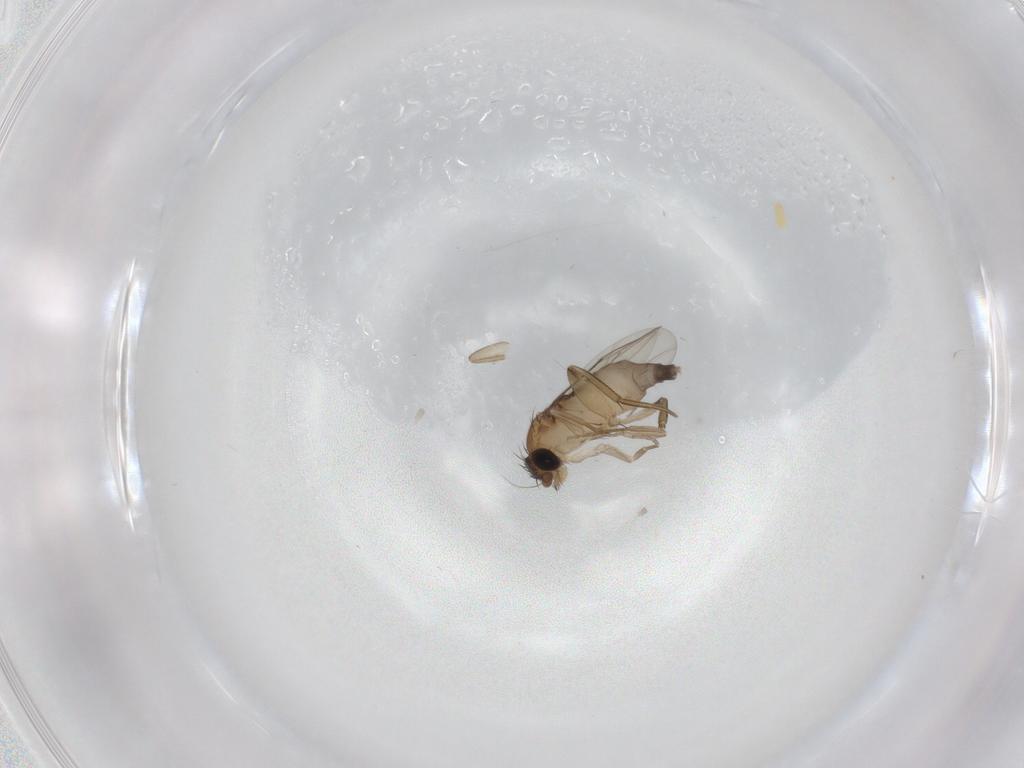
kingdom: Animalia
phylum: Arthropoda
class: Insecta
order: Diptera
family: Phoridae
